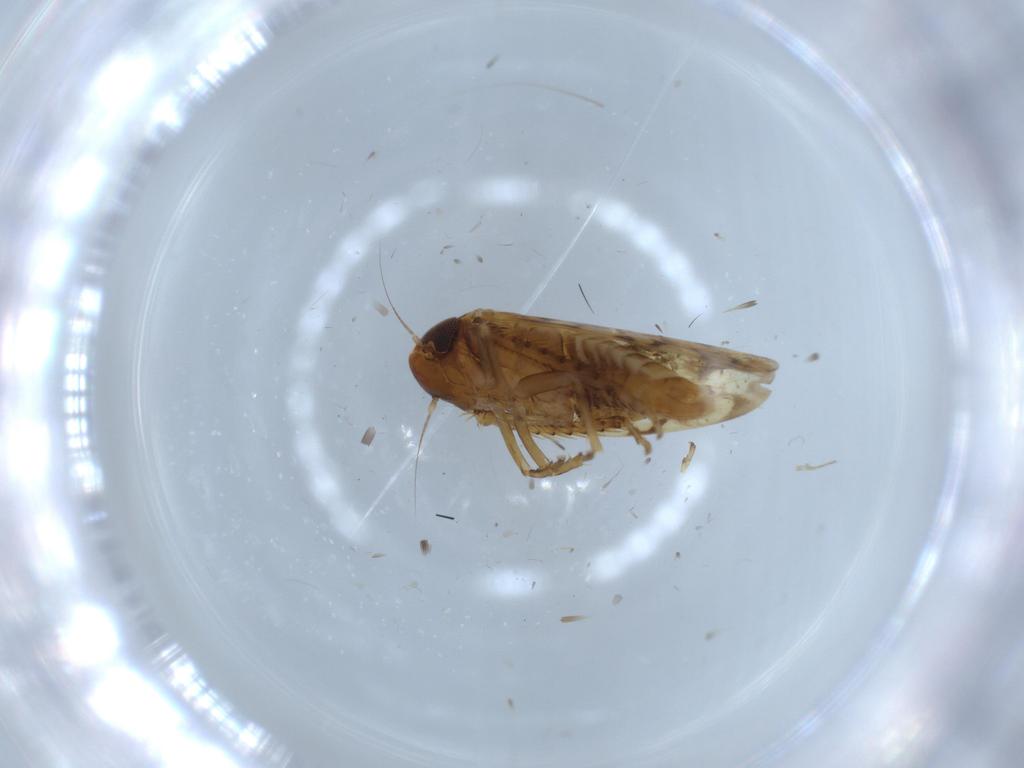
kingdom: Animalia
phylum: Arthropoda
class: Insecta
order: Hemiptera
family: Cicadellidae
